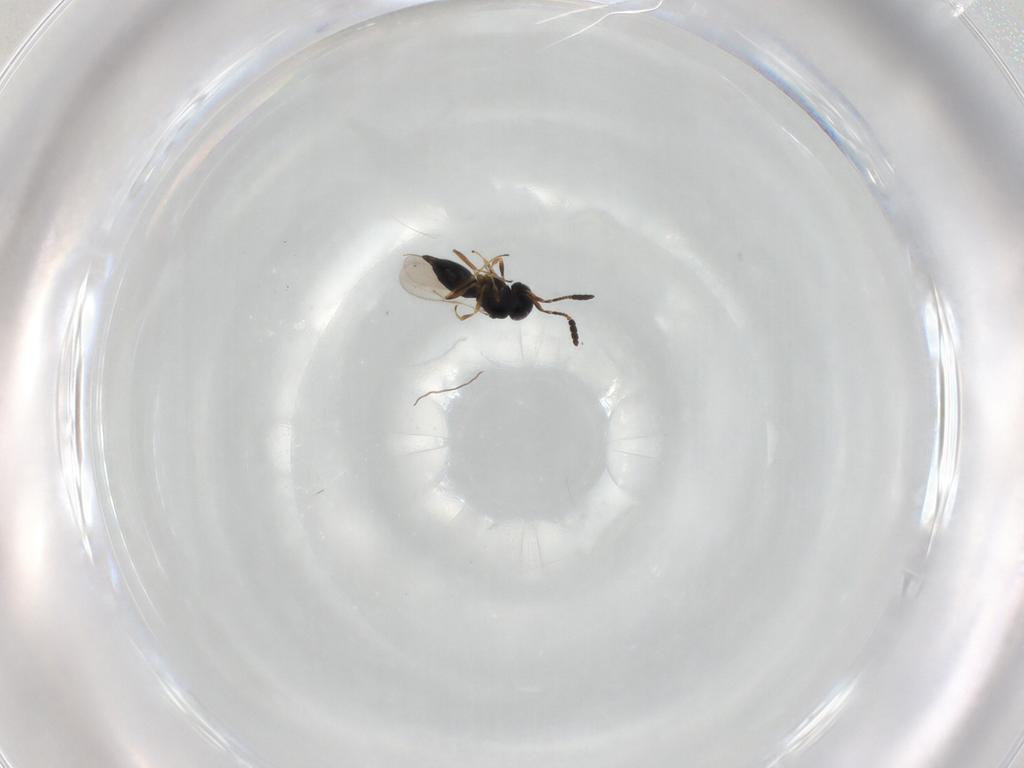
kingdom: Animalia
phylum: Arthropoda
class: Insecta
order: Hymenoptera
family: Scelionidae
